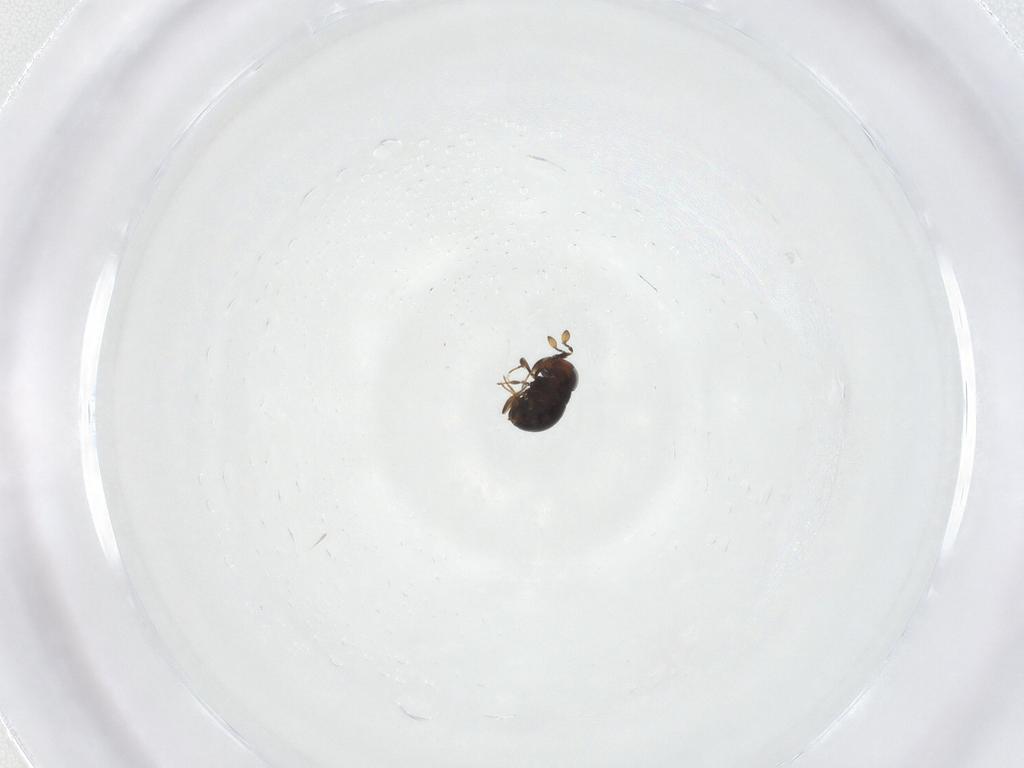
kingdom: Animalia
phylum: Arthropoda
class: Insecta
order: Hymenoptera
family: Scelionidae
